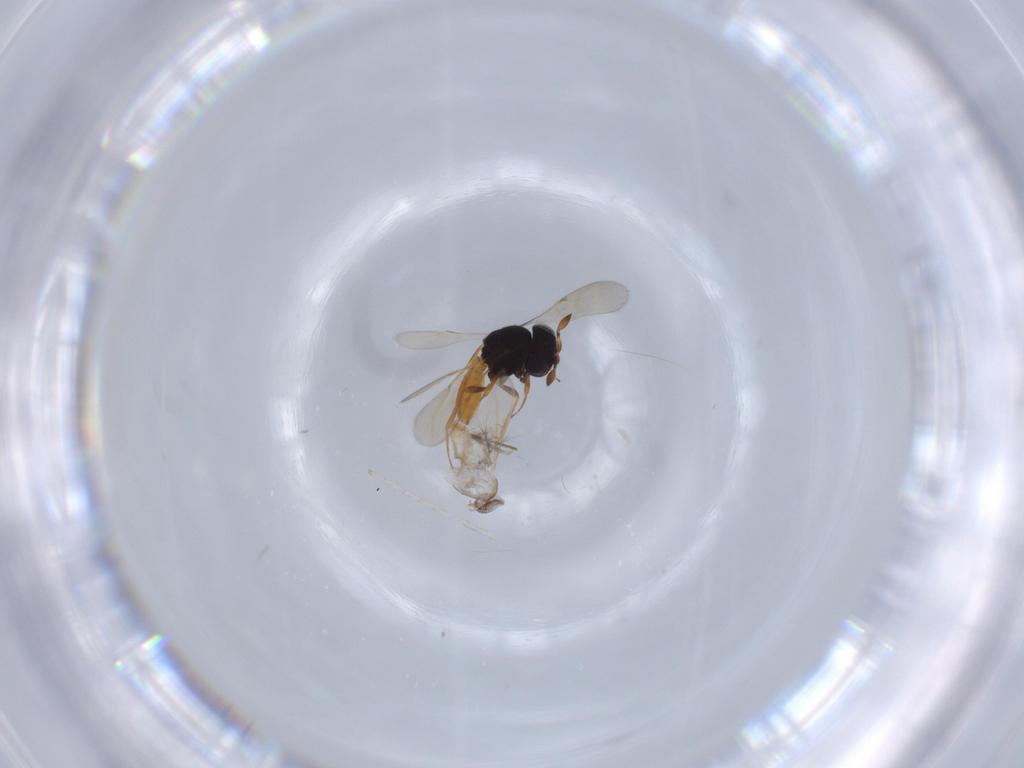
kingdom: Animalia
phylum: Arthropoda
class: Insecta
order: Hymenoptera
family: Scelionidae
